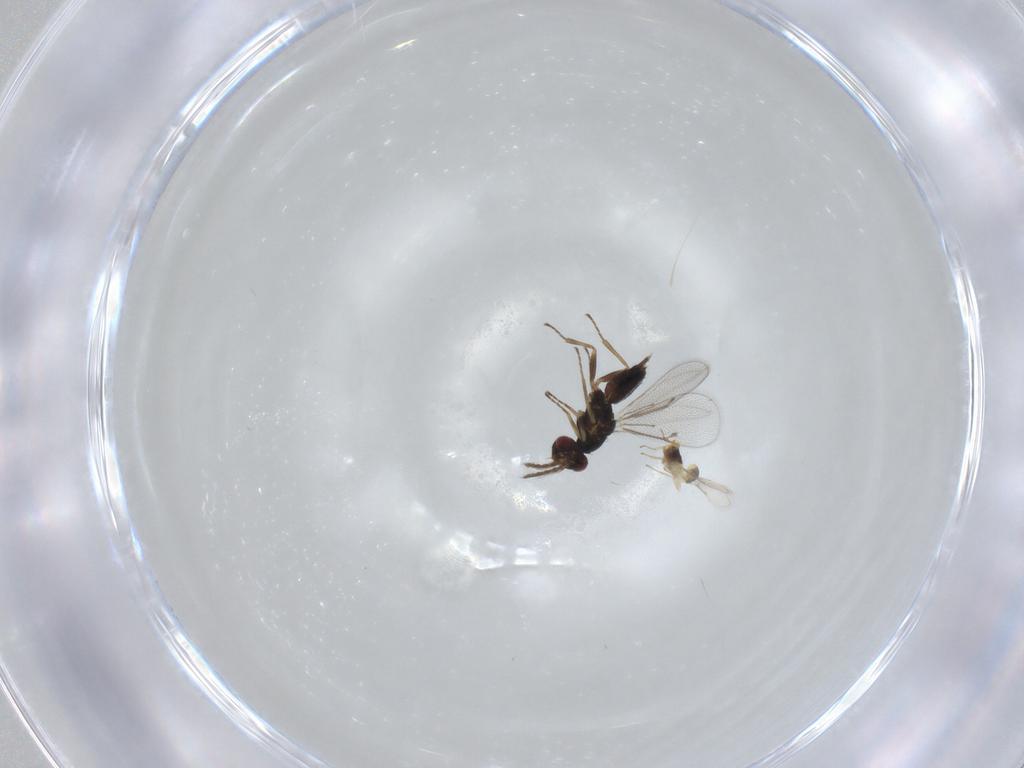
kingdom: Animalia
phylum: Arthropoda
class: Insecta
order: Hymenoptera
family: Eulophidae
